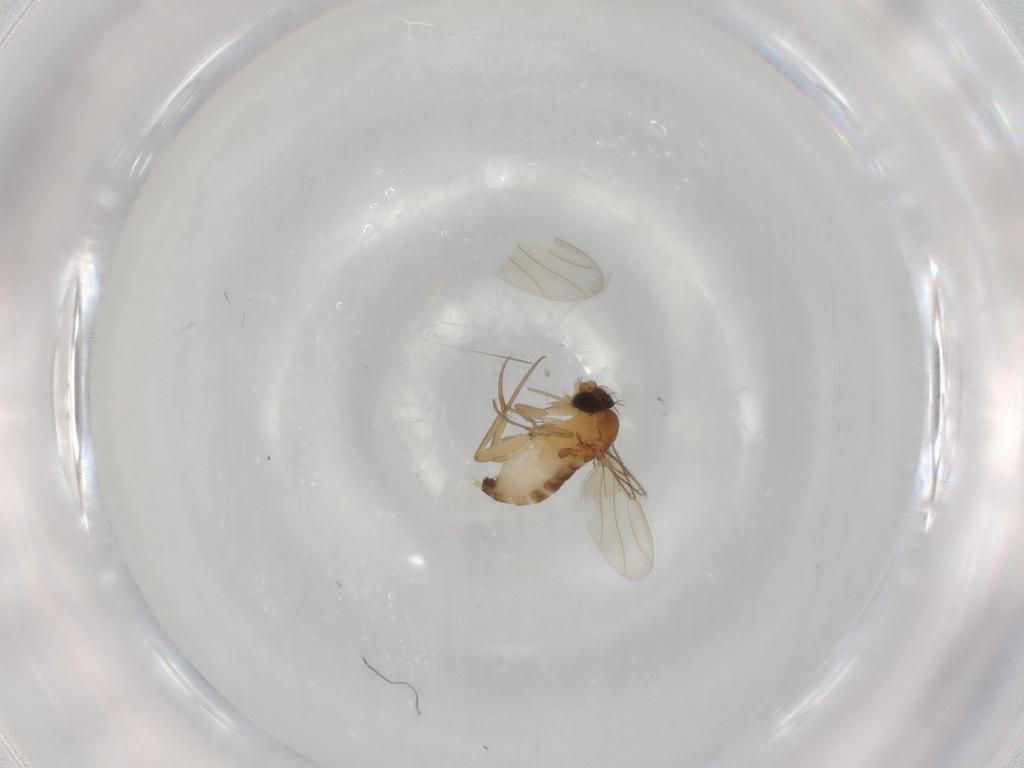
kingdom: Animalia
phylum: Arthropoda
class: Insecta
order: Diptera
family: Phoridae
